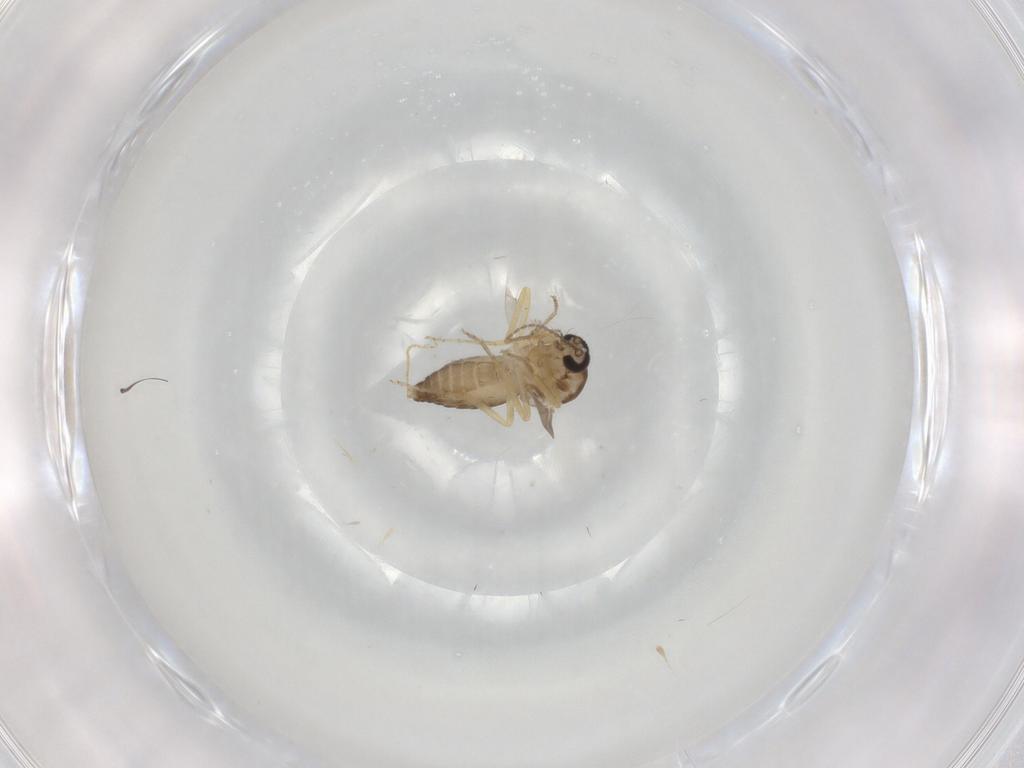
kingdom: Animalia
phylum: Arthropoda
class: Insecta
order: Diptera
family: Ceratopogonidae
